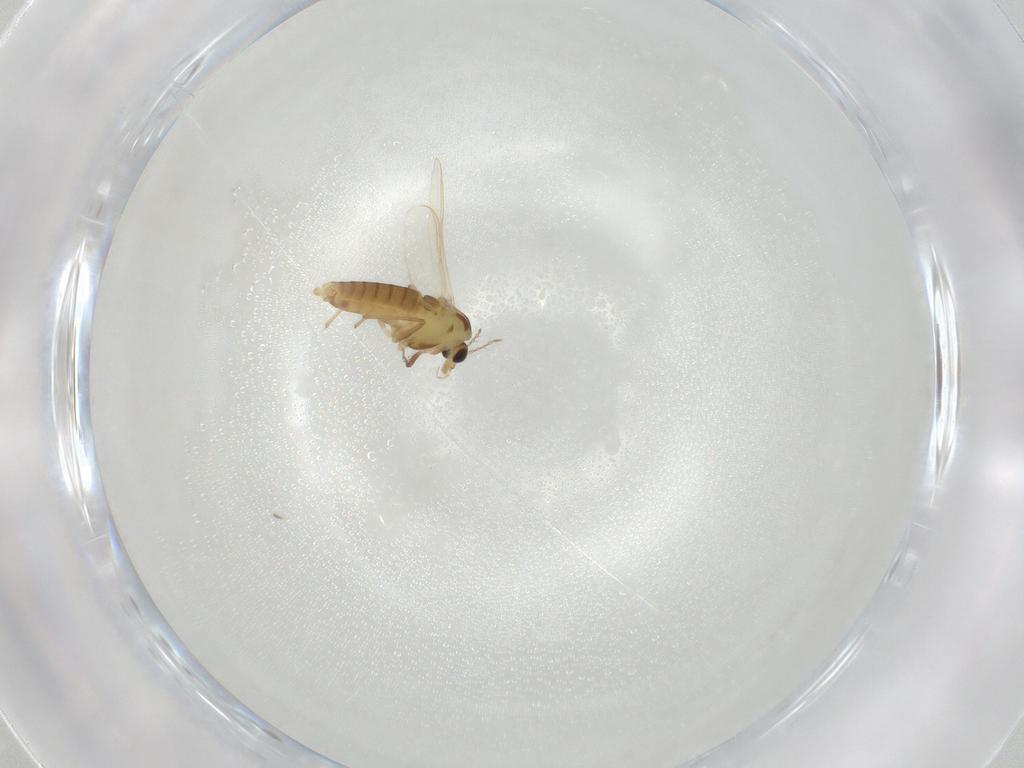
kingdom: Animalia
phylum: Arthropoda
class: Insecta
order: Diptera
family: Chironomidae
